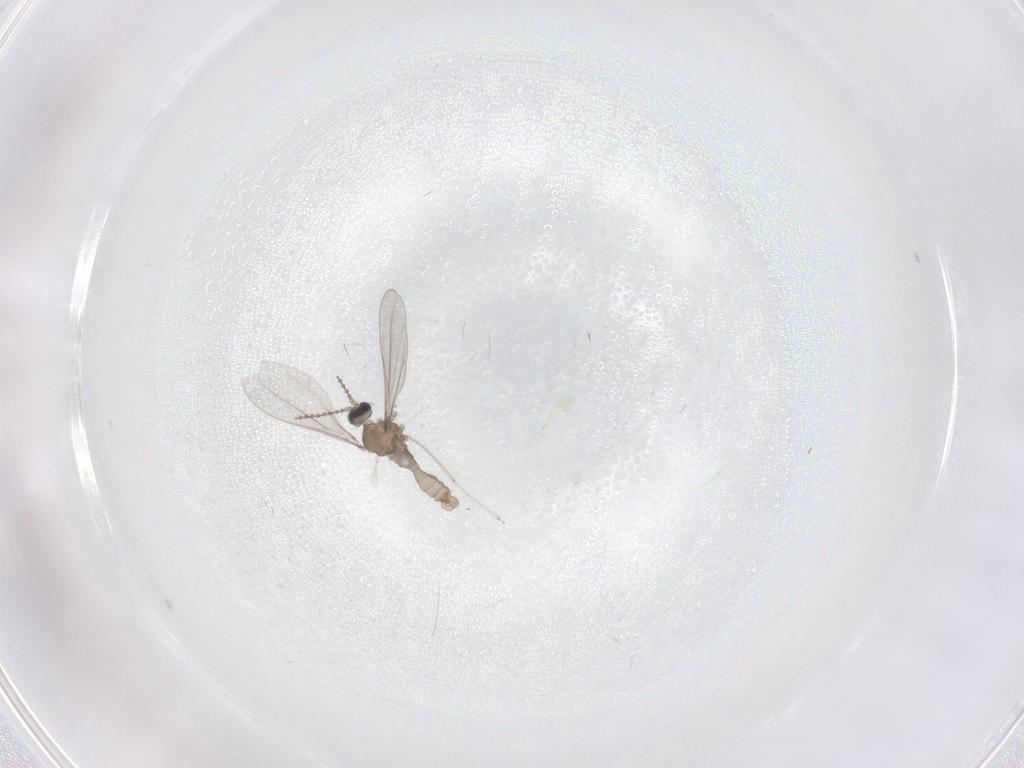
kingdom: Animalia
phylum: Arthropoda
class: Insecta
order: Diptera
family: Cecidomyiidae
